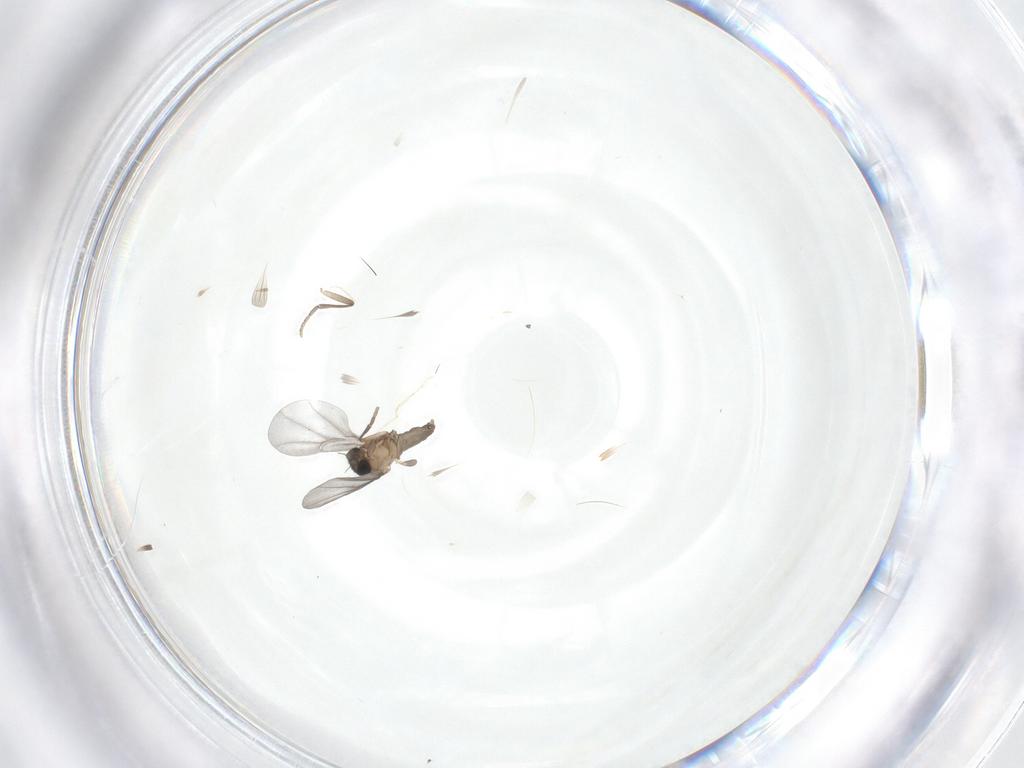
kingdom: Animalia
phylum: Arthropoda
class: Insecta
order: Diptera
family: Phoridae
